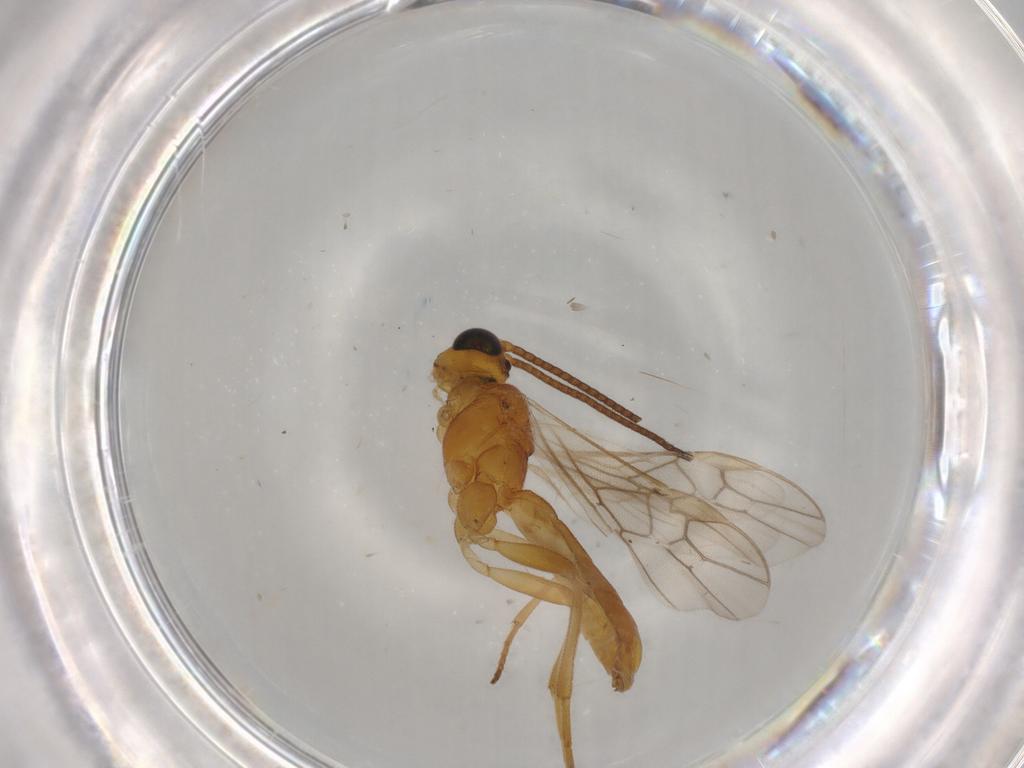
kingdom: Animalia
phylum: Arthropoda
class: Insecta
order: Hymenoptera
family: Braconidae
